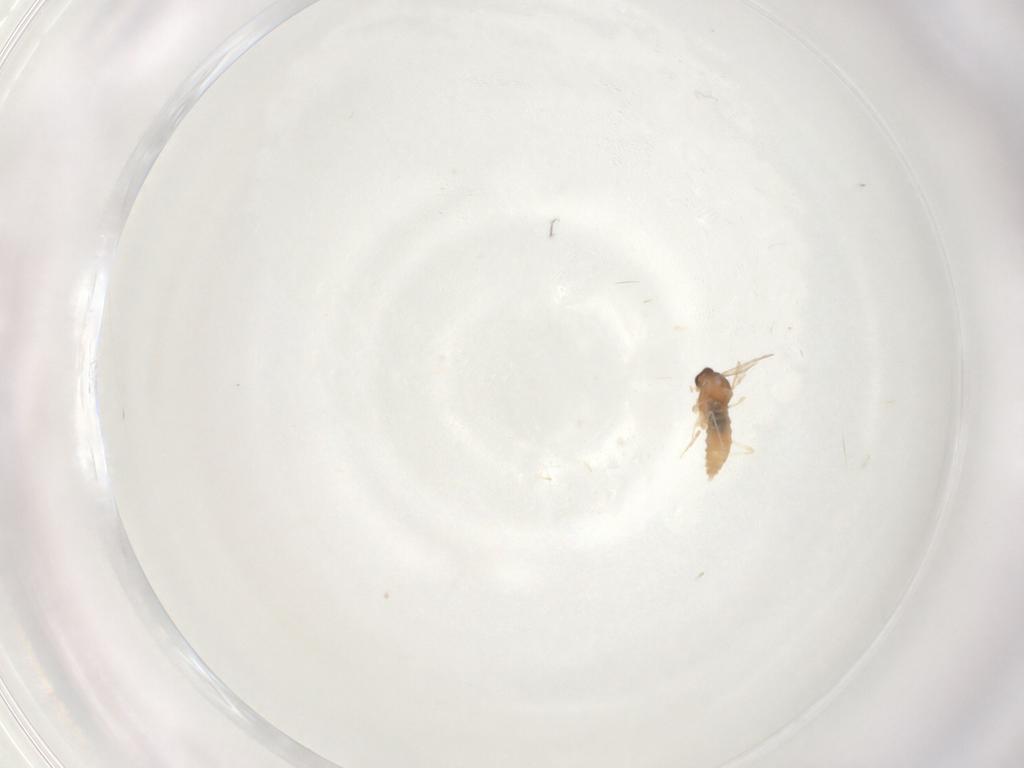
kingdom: Animalia
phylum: Arthropoda
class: Insecta
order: Diptera
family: Cecidomyiidae
